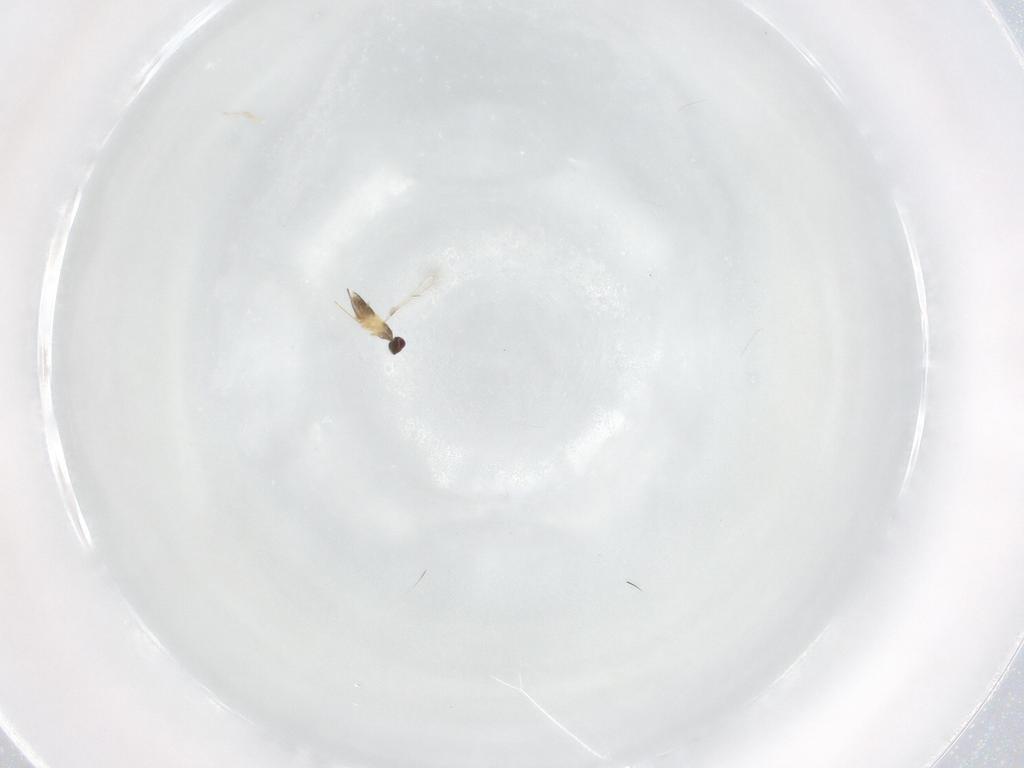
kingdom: Animalia
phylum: Arthropoda
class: Insecta
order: Hymenoptera
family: Mymaridae
